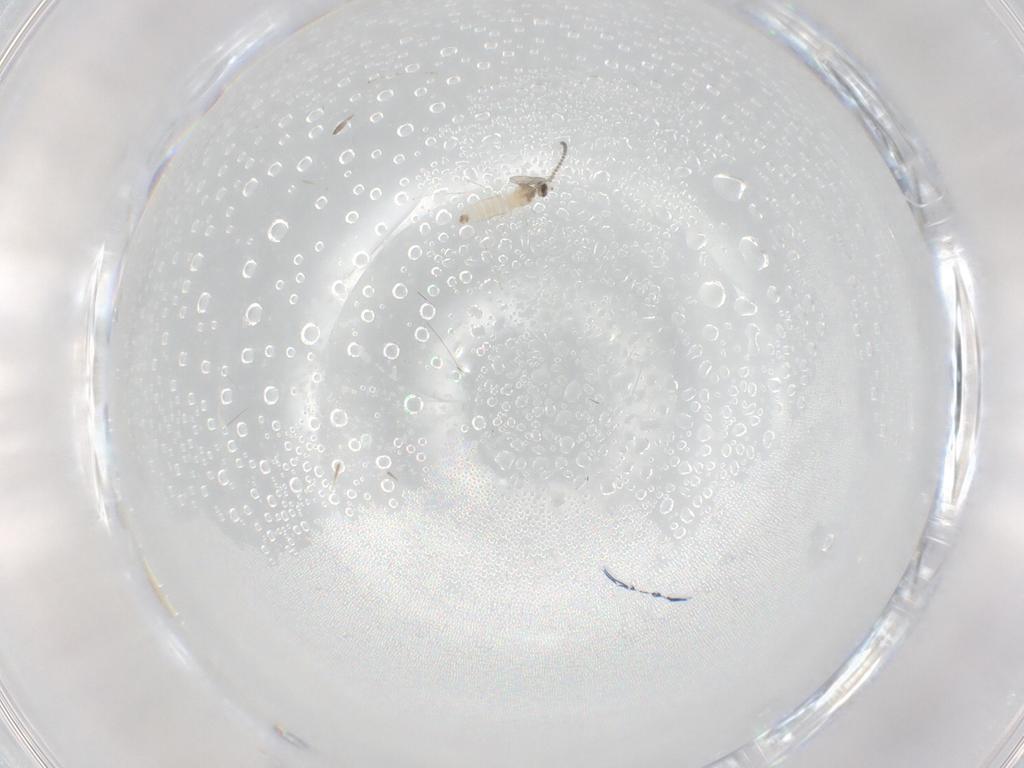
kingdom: Animalia
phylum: Arthropoda
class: Insecta
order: Diptera
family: Cecidomyiidae
